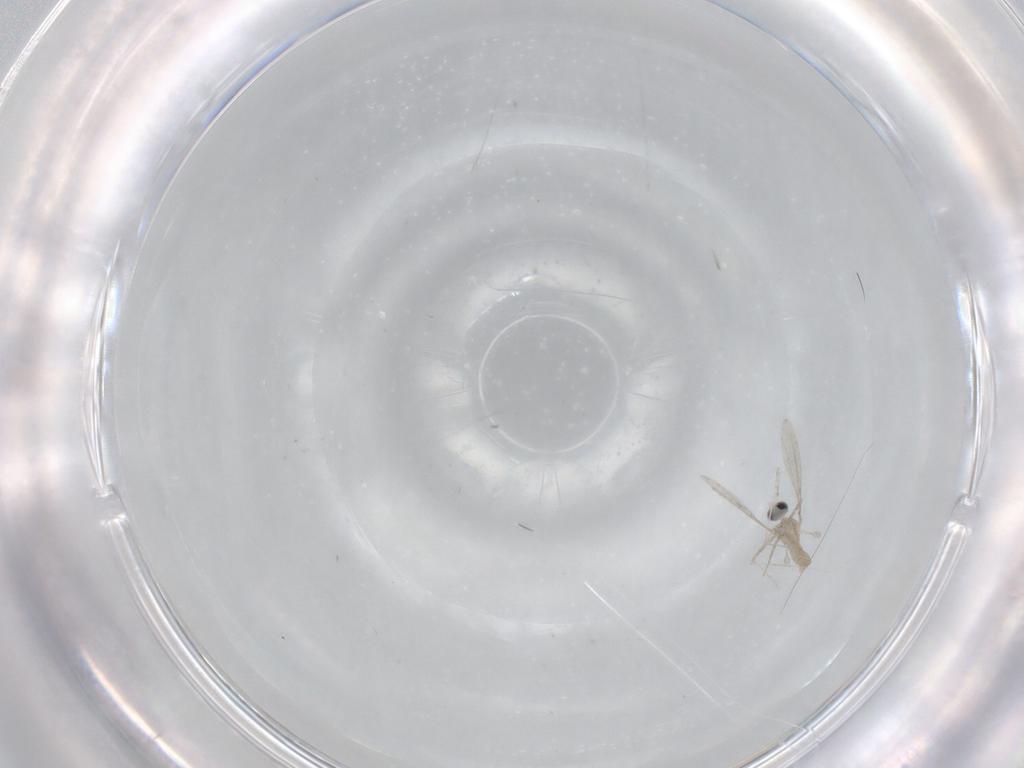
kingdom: Animalia
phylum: Arthropoda
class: Insecta
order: Diptera
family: Cecidomyiidae
